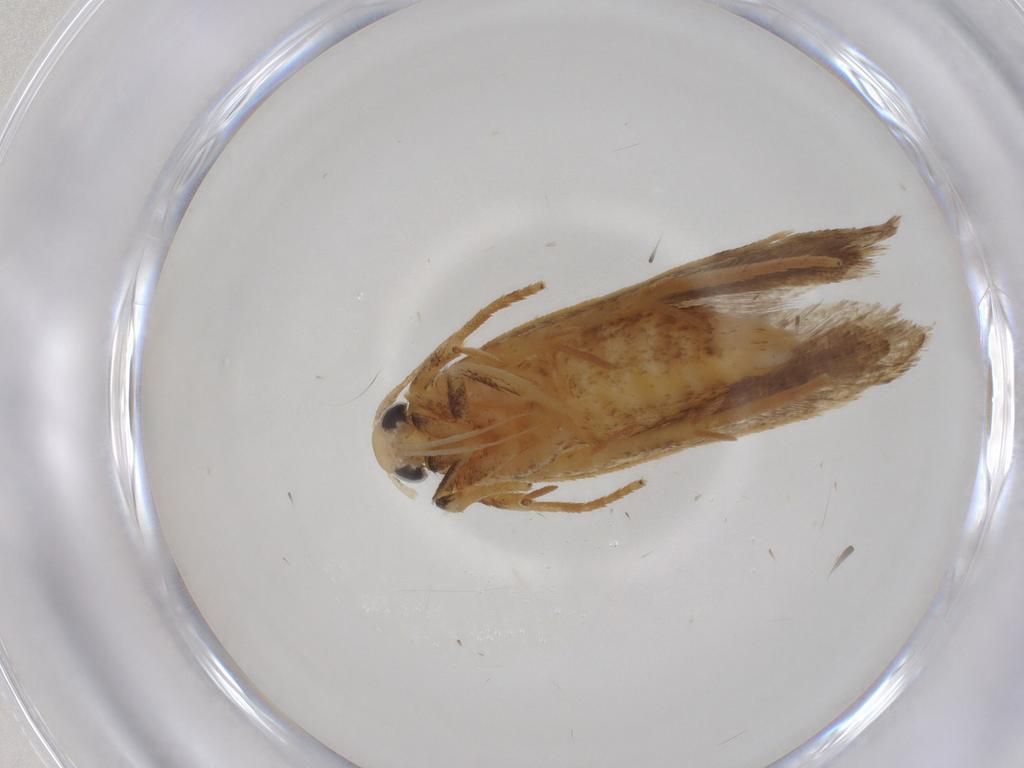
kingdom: Animalia
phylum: Arthropoda
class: Insecta
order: Lepidoptera
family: Gelechiidae
